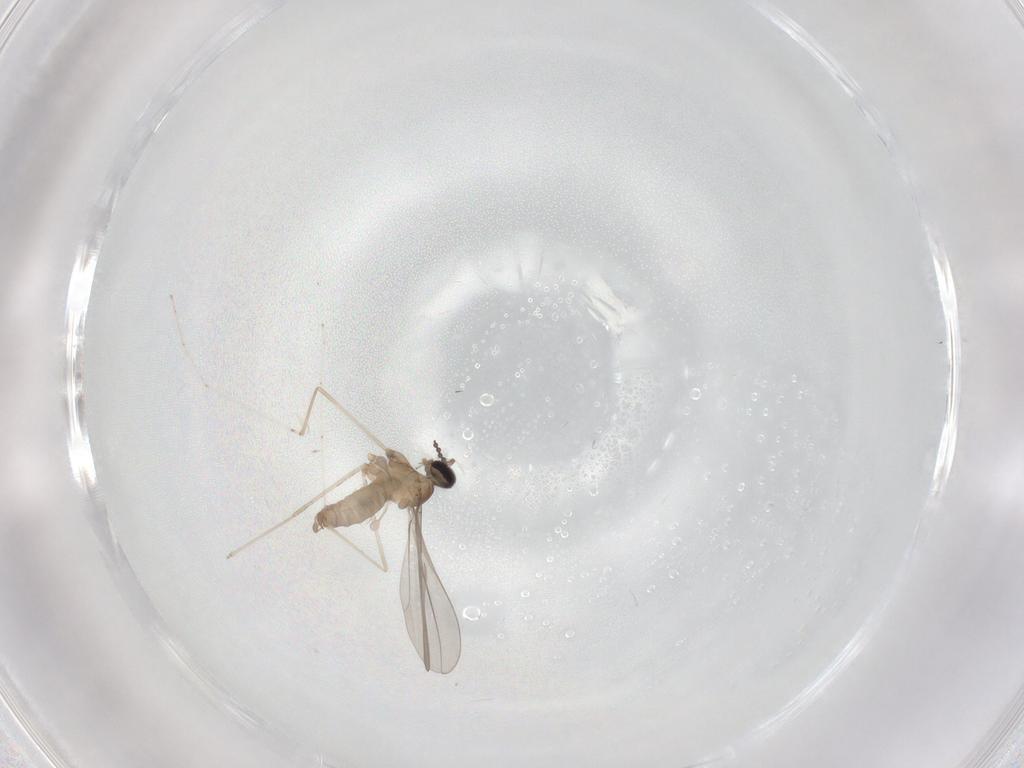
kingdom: Animalia
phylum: Arthropoda
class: Insecta
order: Diptera
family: Cecidomyiidae
